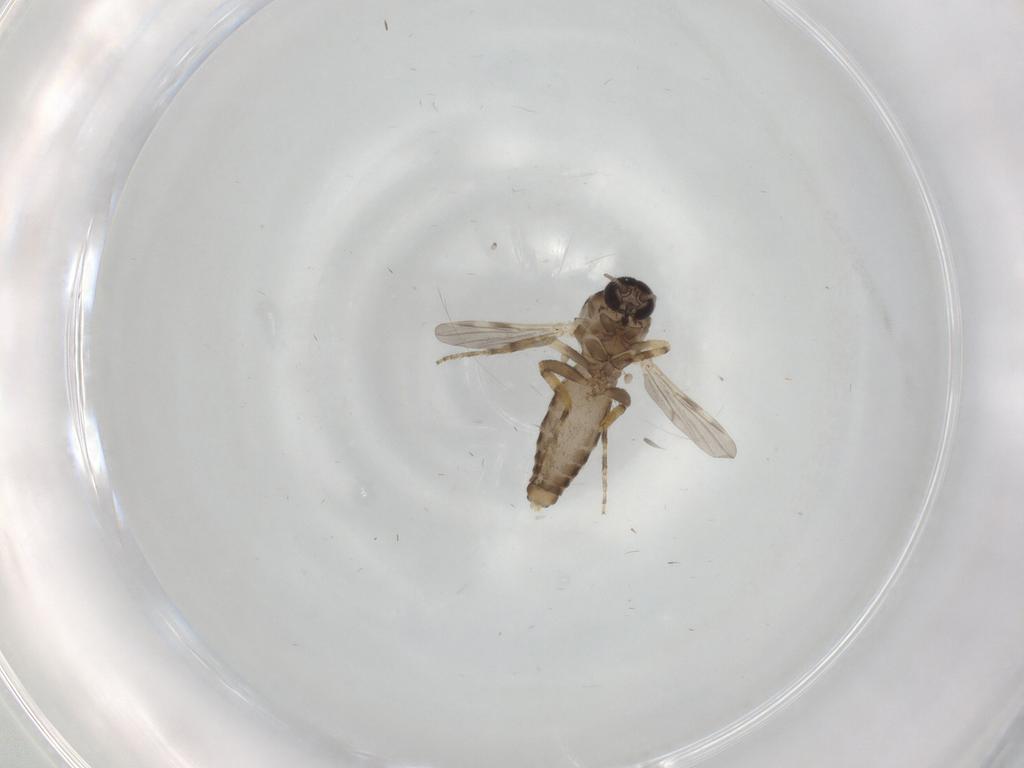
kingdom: Animalia
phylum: Arthropoda
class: Insecta
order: Diptera
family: Ceratopogonidae
